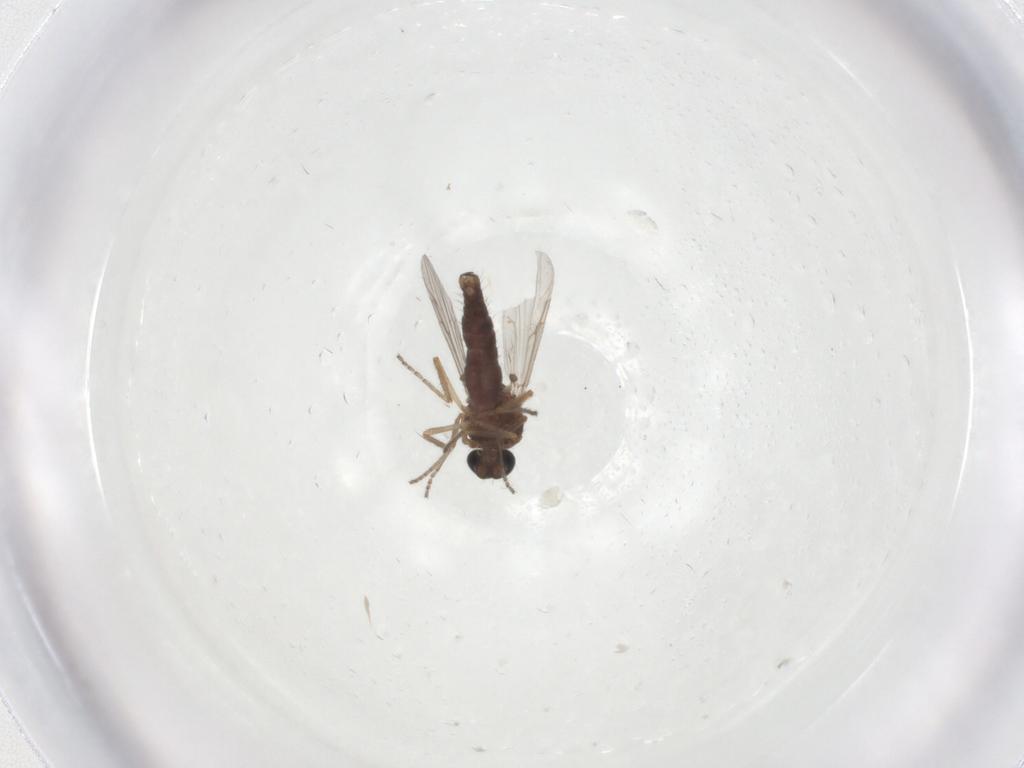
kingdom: Animalia
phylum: Arthropoda
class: Insecta
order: Diptera
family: Ceratopogonidae
